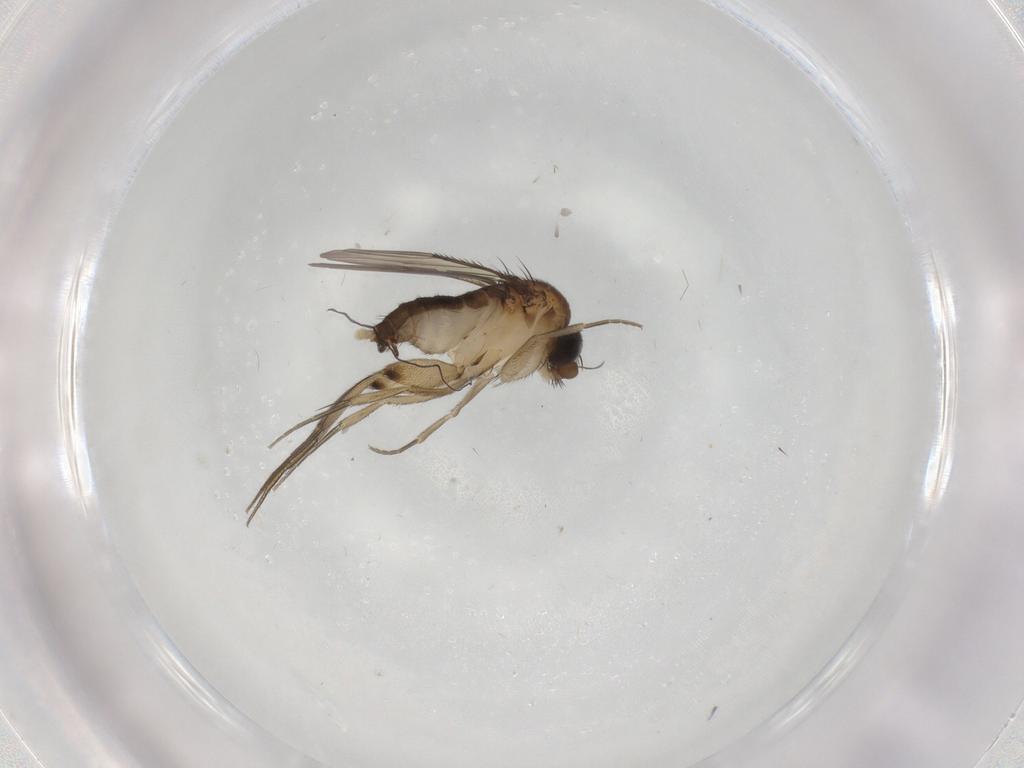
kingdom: Animalia
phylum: Arthropoda
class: Insecta
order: Diptera
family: Phoridae
